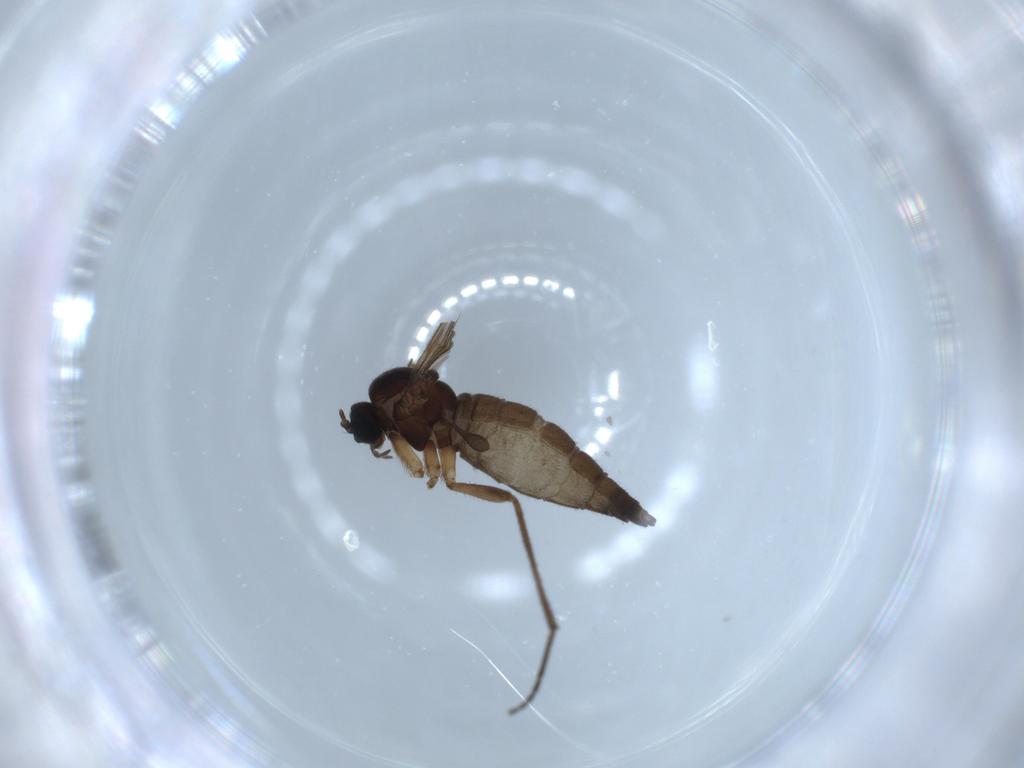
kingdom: Animalia
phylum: Arthropoda
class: Insecta
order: Diptera
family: Sciaridae
